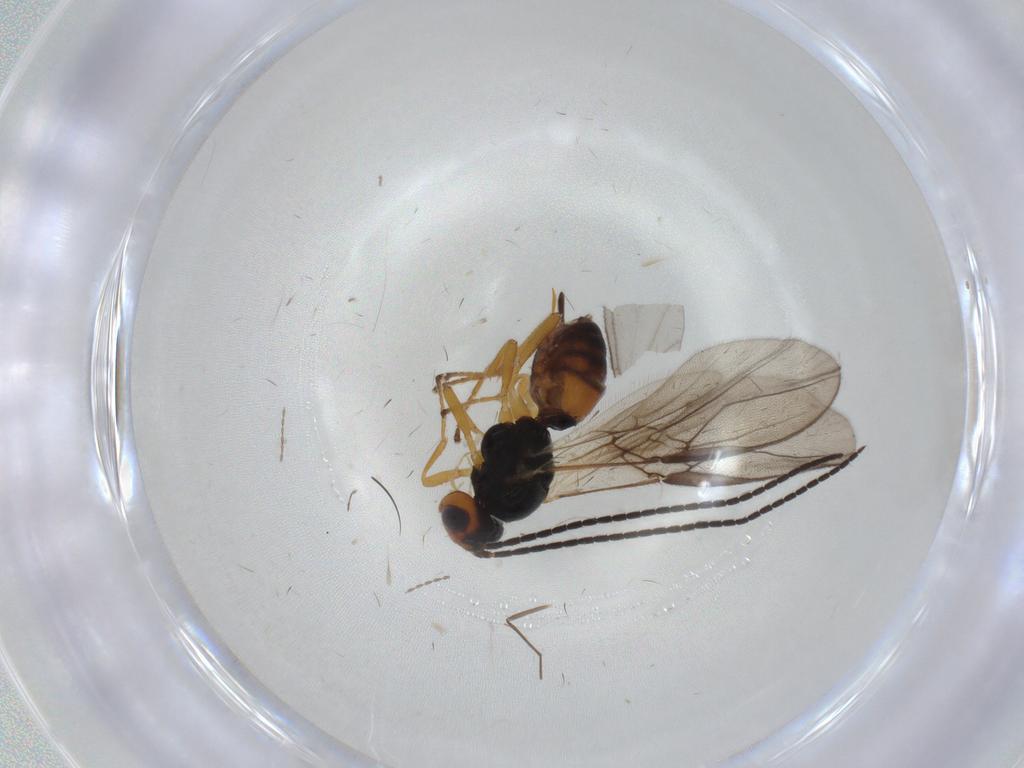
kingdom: Animalia
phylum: Arthropoda
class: Insecta
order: Hymenoptera
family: Braconidae
